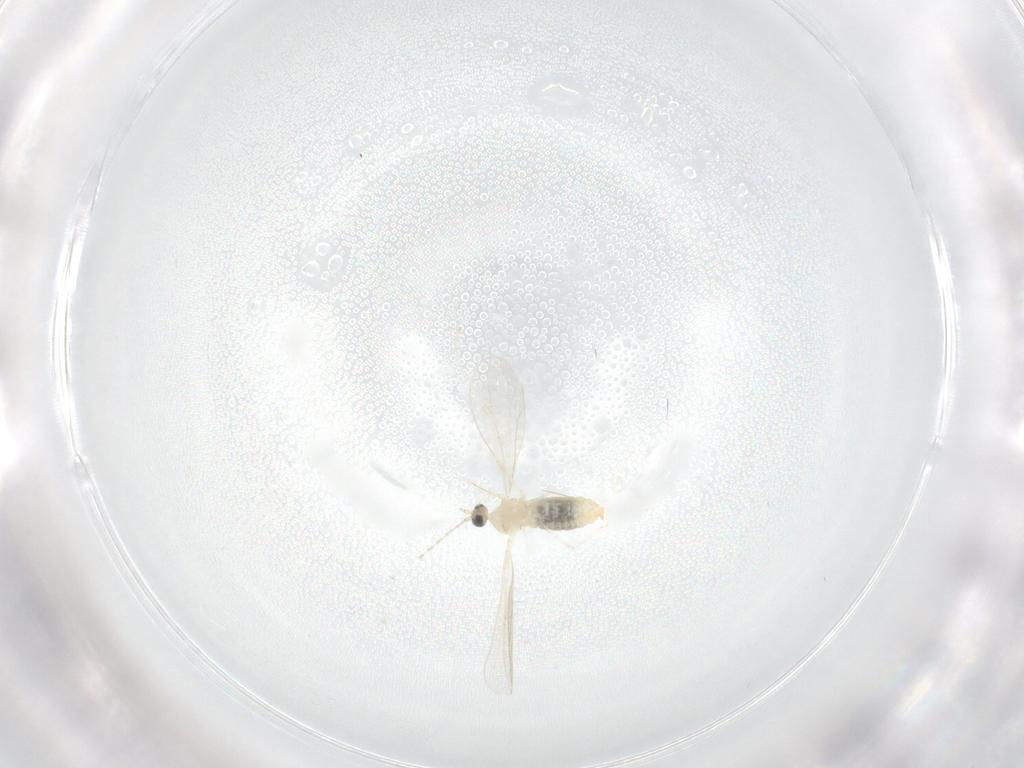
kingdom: Animalia
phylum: Arthropoda
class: Insecta
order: Diptera
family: Cecidomyiidae
